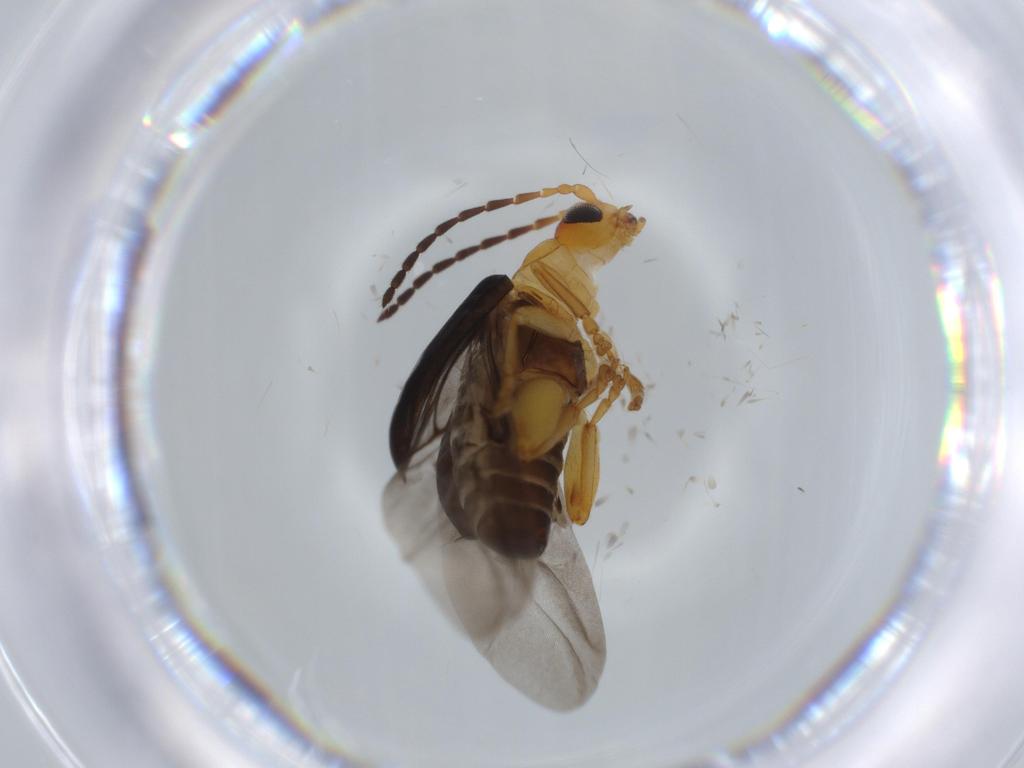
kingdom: Animalia
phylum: Arthropoda
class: Insecta
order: Coleoptera
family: Chrysomelidae
